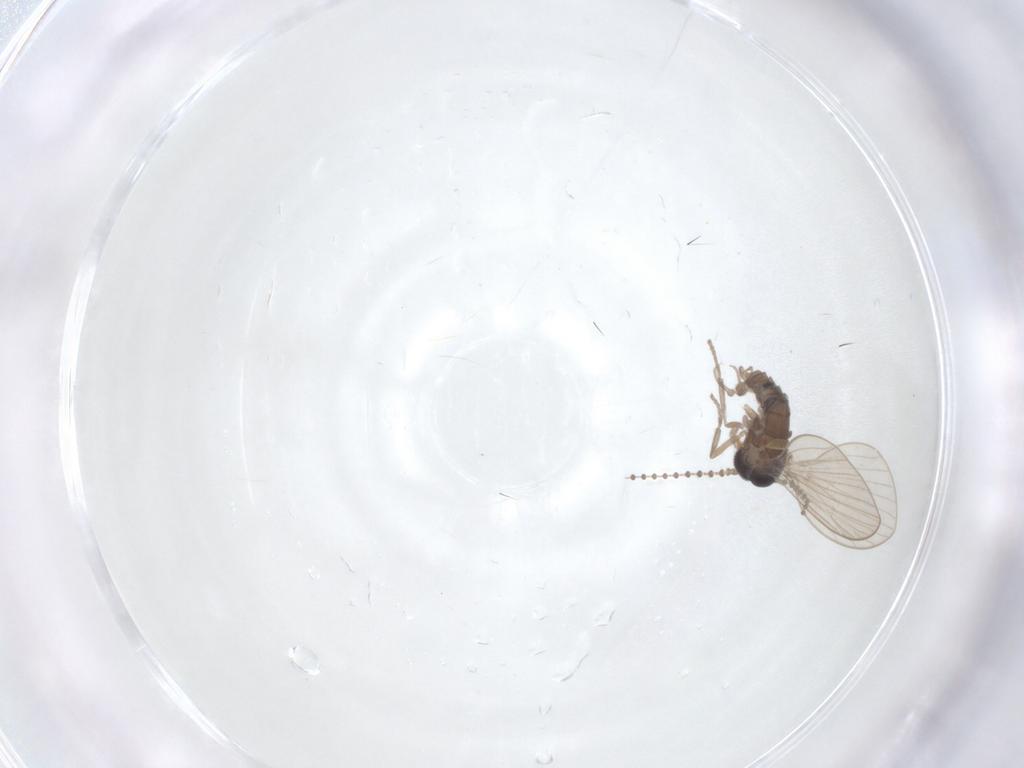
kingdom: Animalia
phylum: Arthropoda
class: Insecta
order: Diptera
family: Psychodidae
